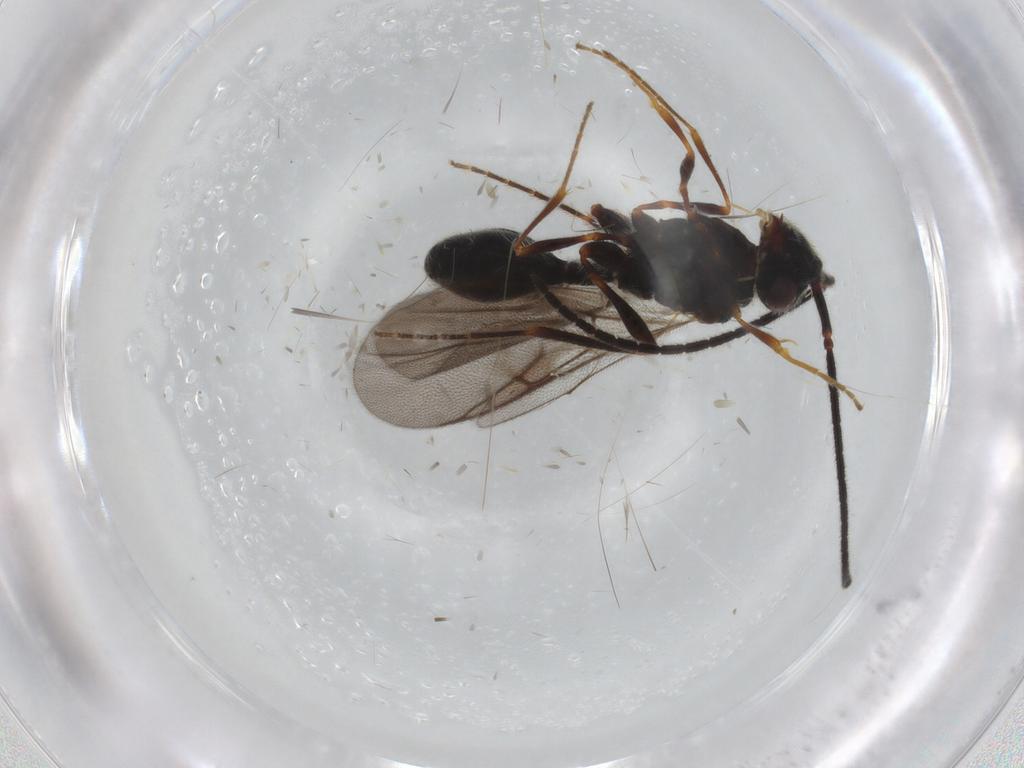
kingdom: Animalia
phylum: Arthropoda
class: Insecta
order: Hymenoptera
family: Diapriidae
